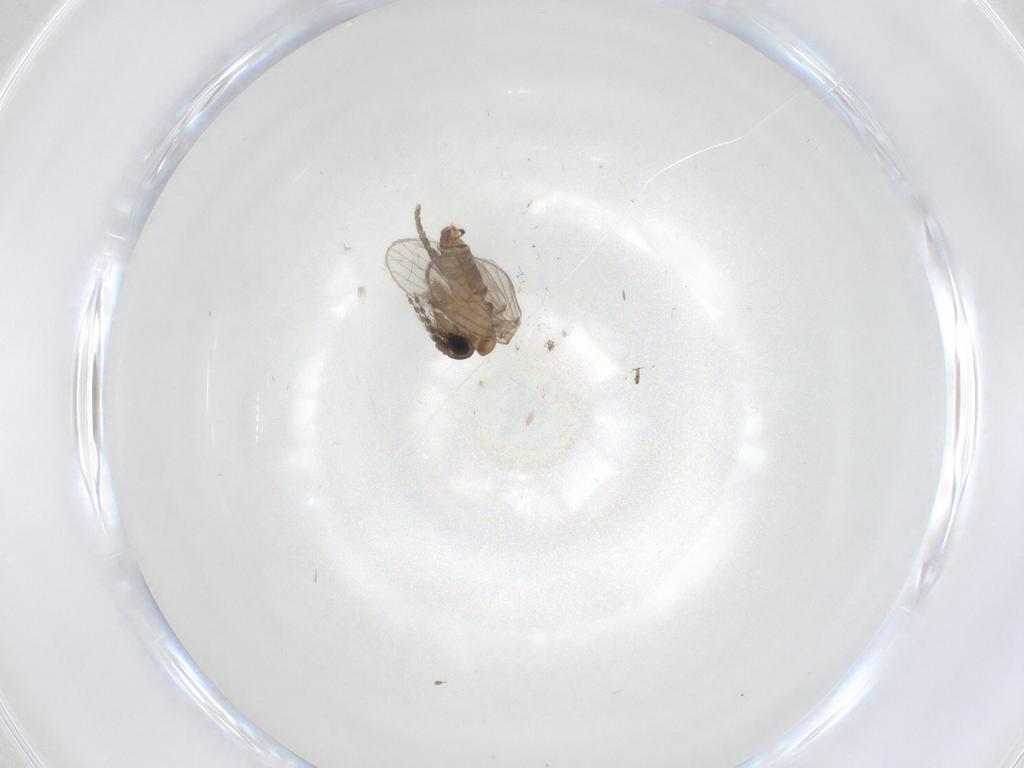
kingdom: Animalia
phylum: Arthropoda
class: Insecta
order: Diptera
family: Psychodidae
